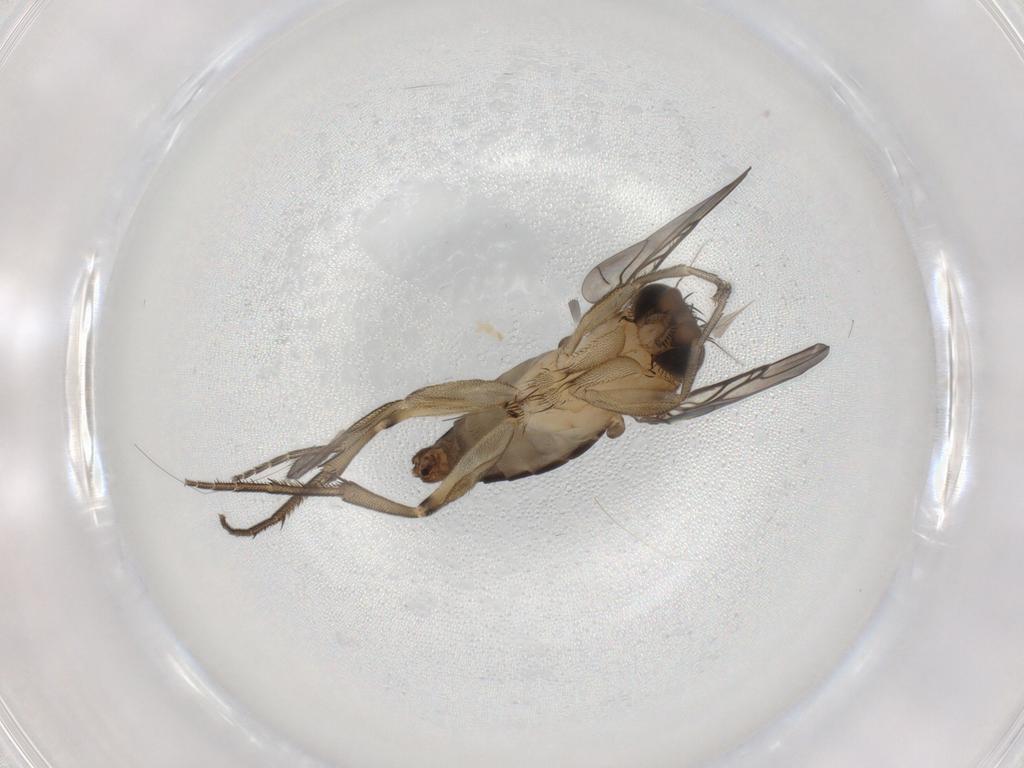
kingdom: Animalia
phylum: Arthropoda
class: Insecta
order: Diptera
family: Phoridae
